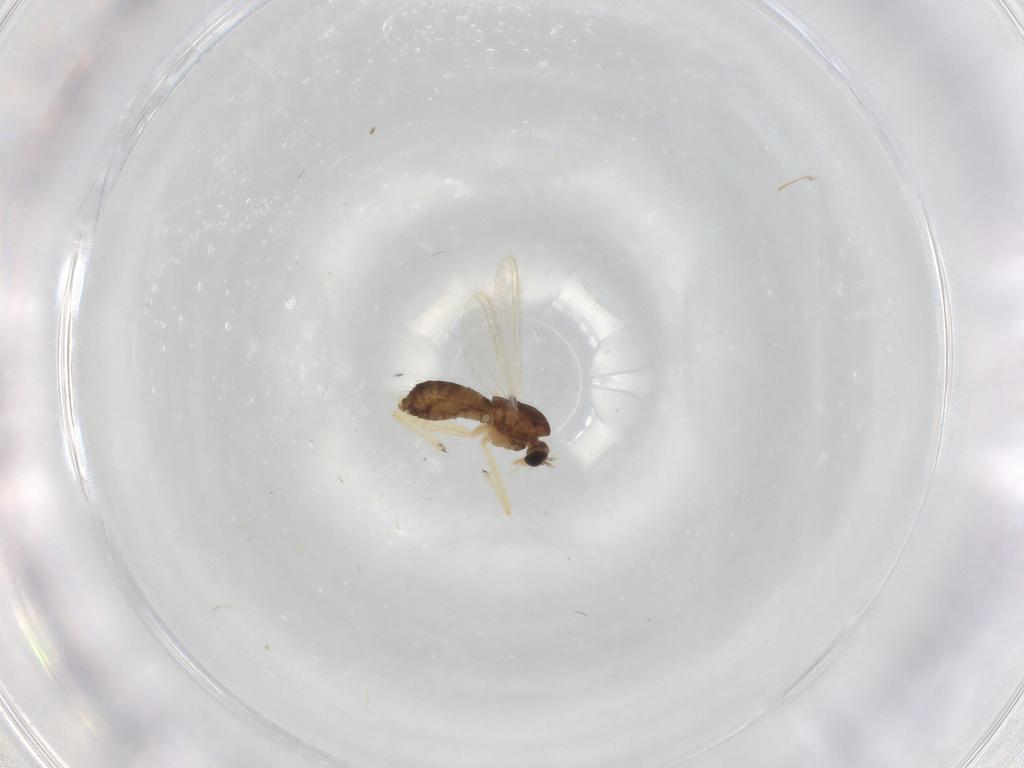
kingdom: Animalia
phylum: Arthropoda
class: Insecta
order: Diptera
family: Chironomidae
